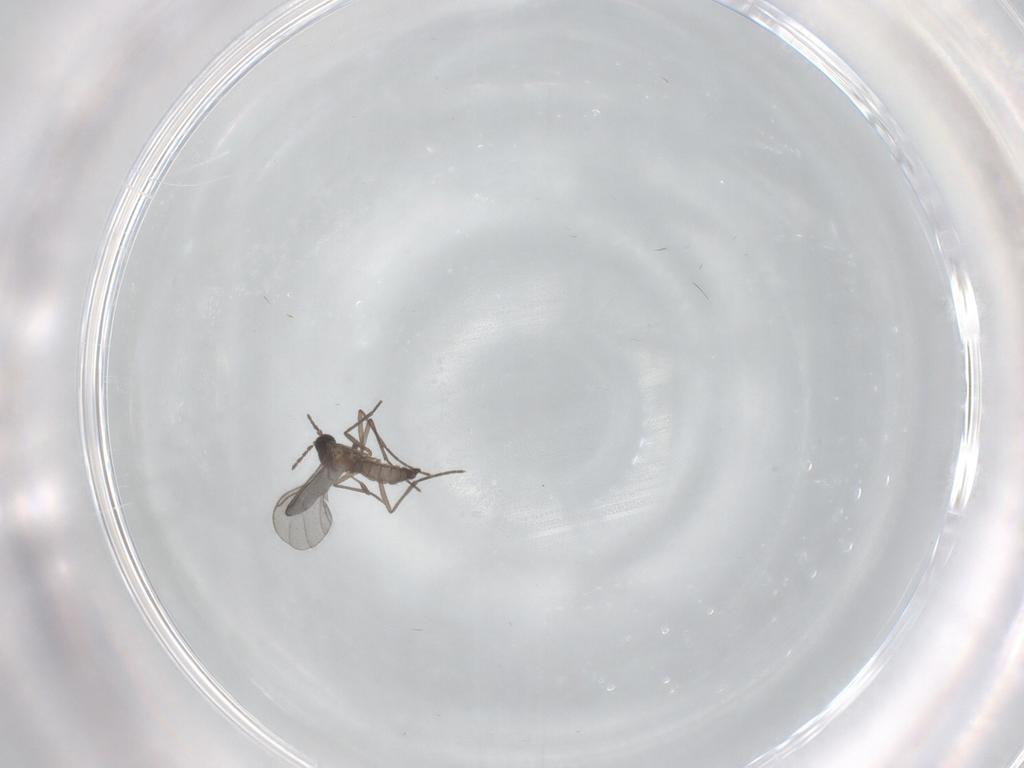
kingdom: Animalia
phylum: Arthropoda
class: Insecta
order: Diptera
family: Sciaridae
